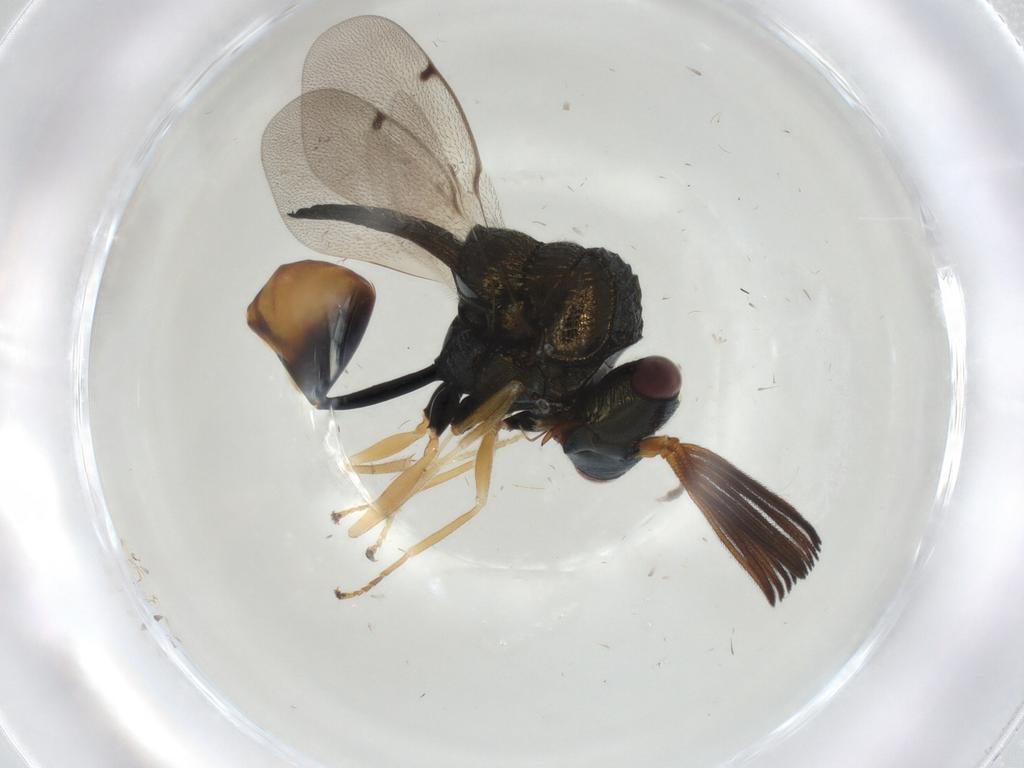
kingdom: Animalia
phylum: Arthropoda
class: Insecta
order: Hymenoptera
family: Eucharitidae
